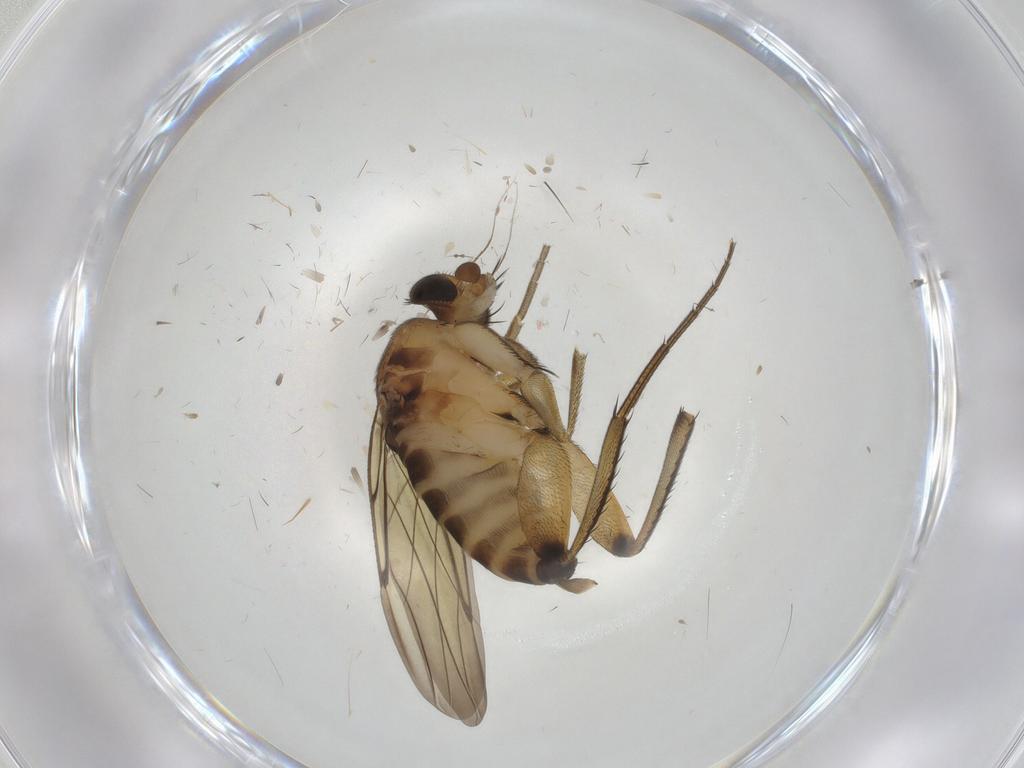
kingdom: Animalia
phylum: Arthropoda
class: Insecta
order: Diptera
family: Phoridae
